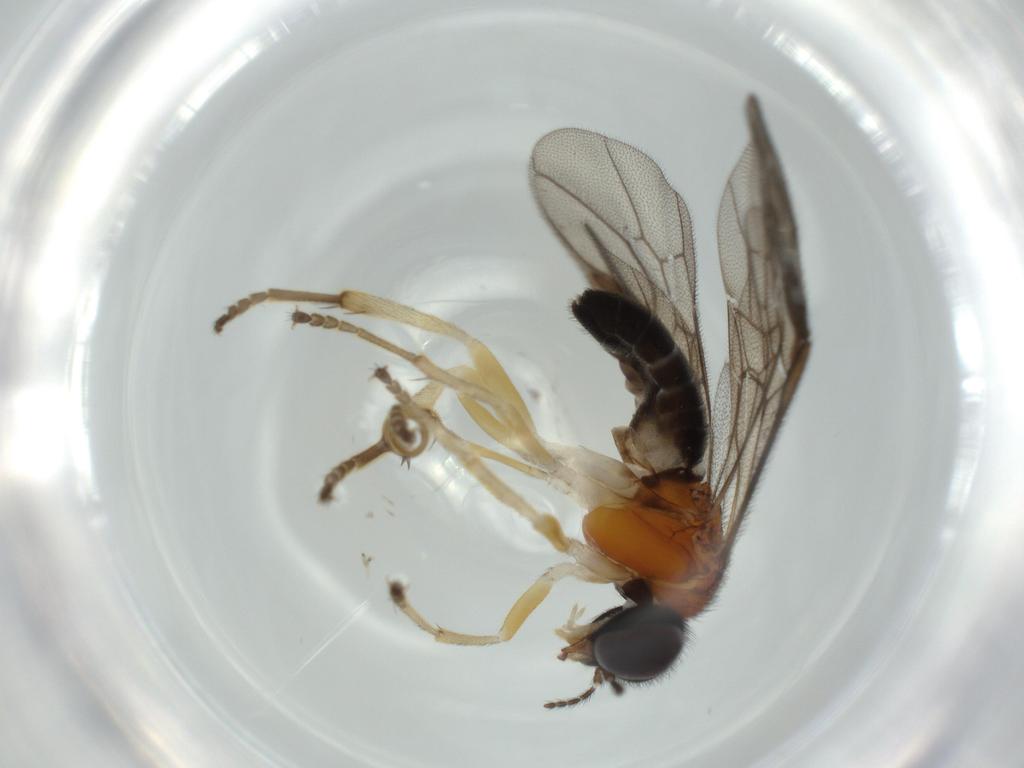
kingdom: Animalia
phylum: Arthropoda
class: Insecta
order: Hymenoptera
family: Pergidae
